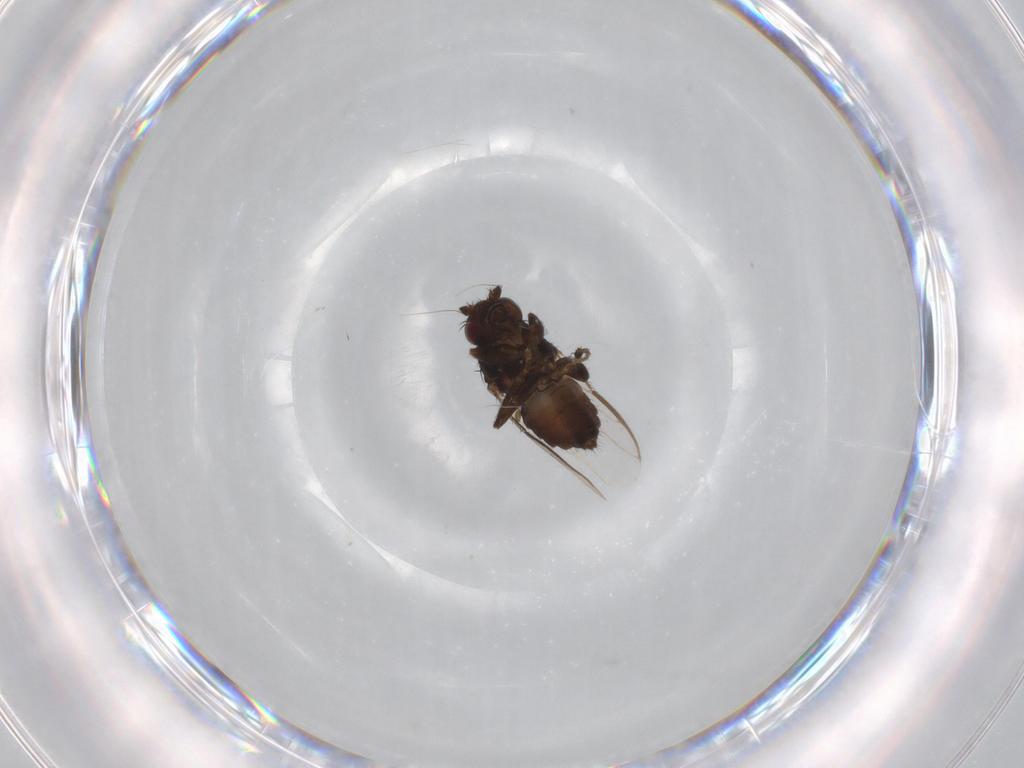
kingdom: Animalia
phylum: Arthropoda
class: Insecta
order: Diptera
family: Sphaeroceridae
